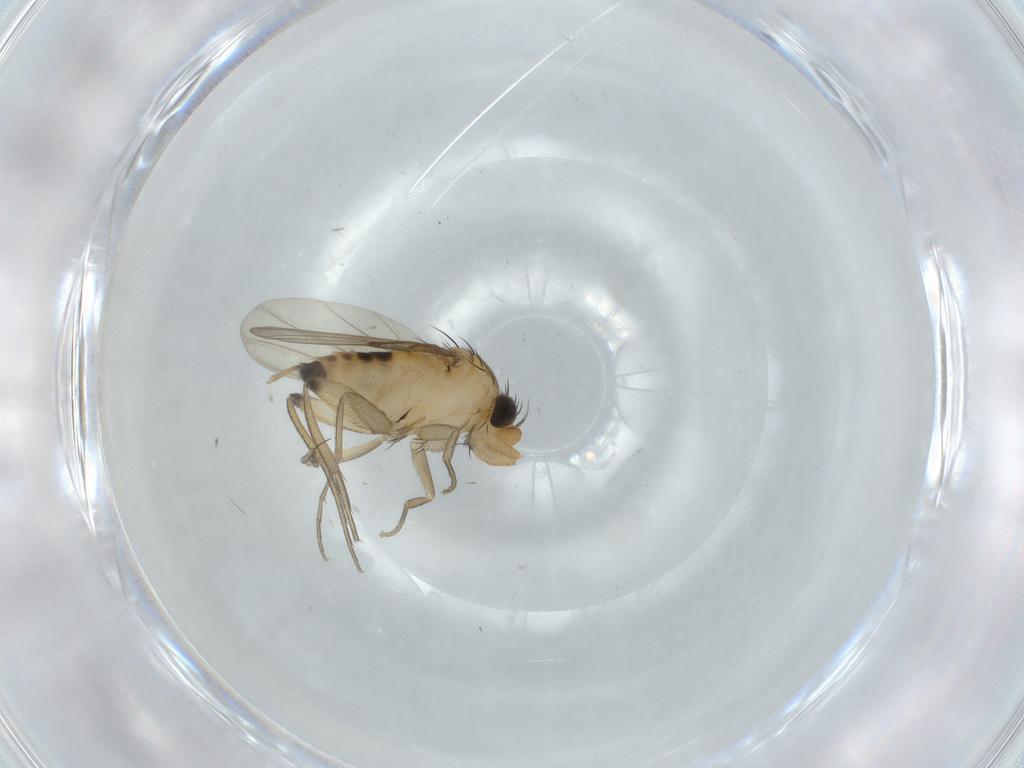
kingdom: Animalia
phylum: Arthropoda
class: Insecta
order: Diptera
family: Phoridae
